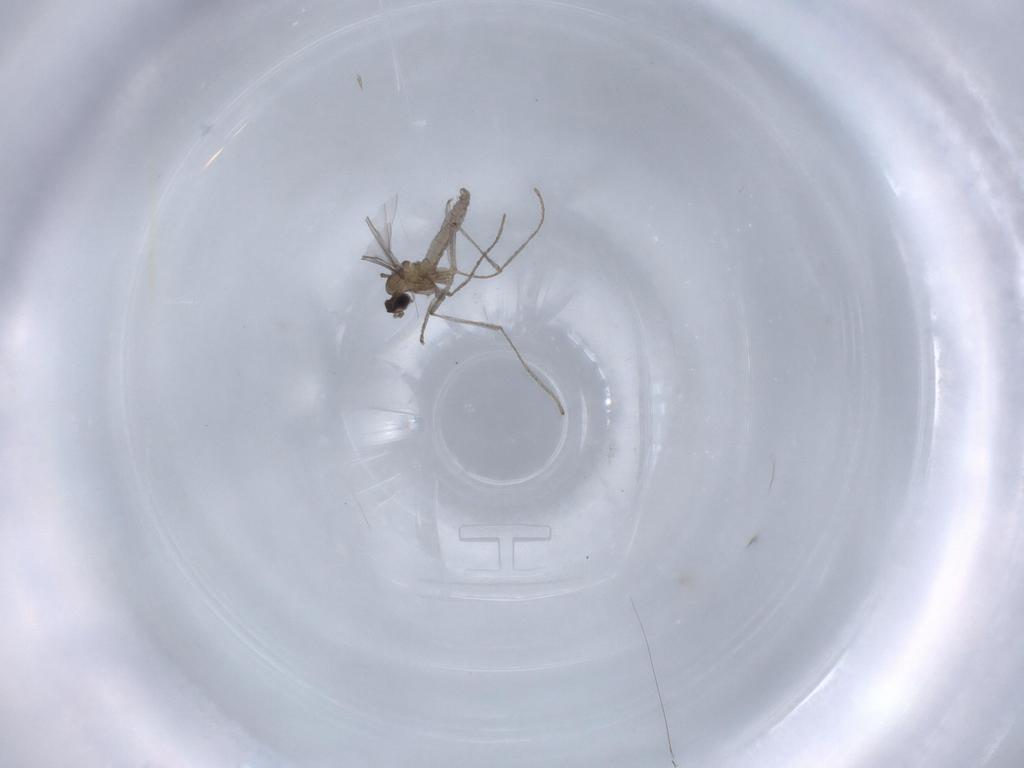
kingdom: Animalia
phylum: Arthropoda
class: Insecta
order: Diptera
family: Cecidomyiidae
